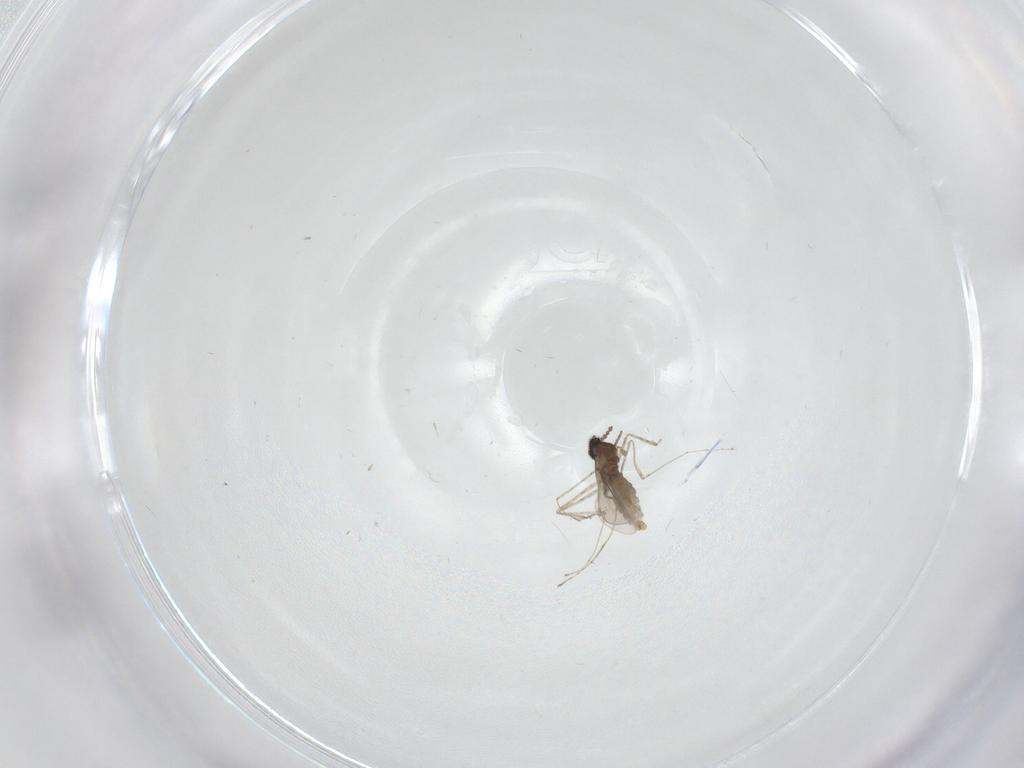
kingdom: Animalia
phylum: Arthropoda
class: Insecta
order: Diptera
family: Cecidomyiidae
